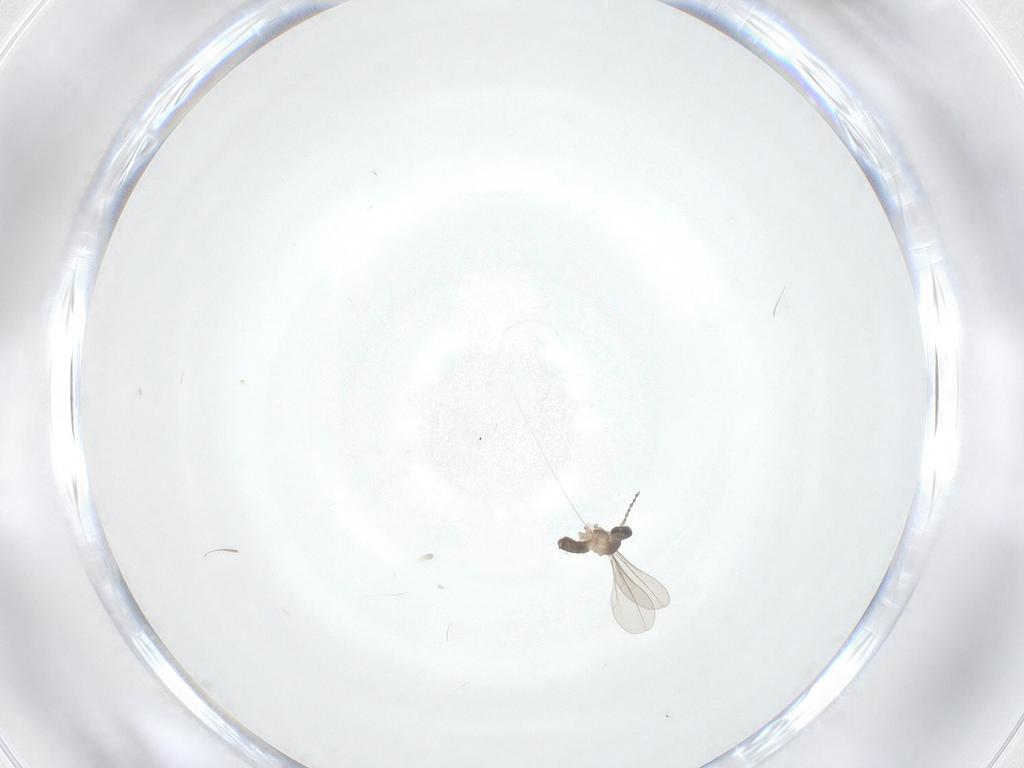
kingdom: Animalia
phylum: Arthropoda
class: Insecta
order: Diptera
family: Cecidomyiidae
